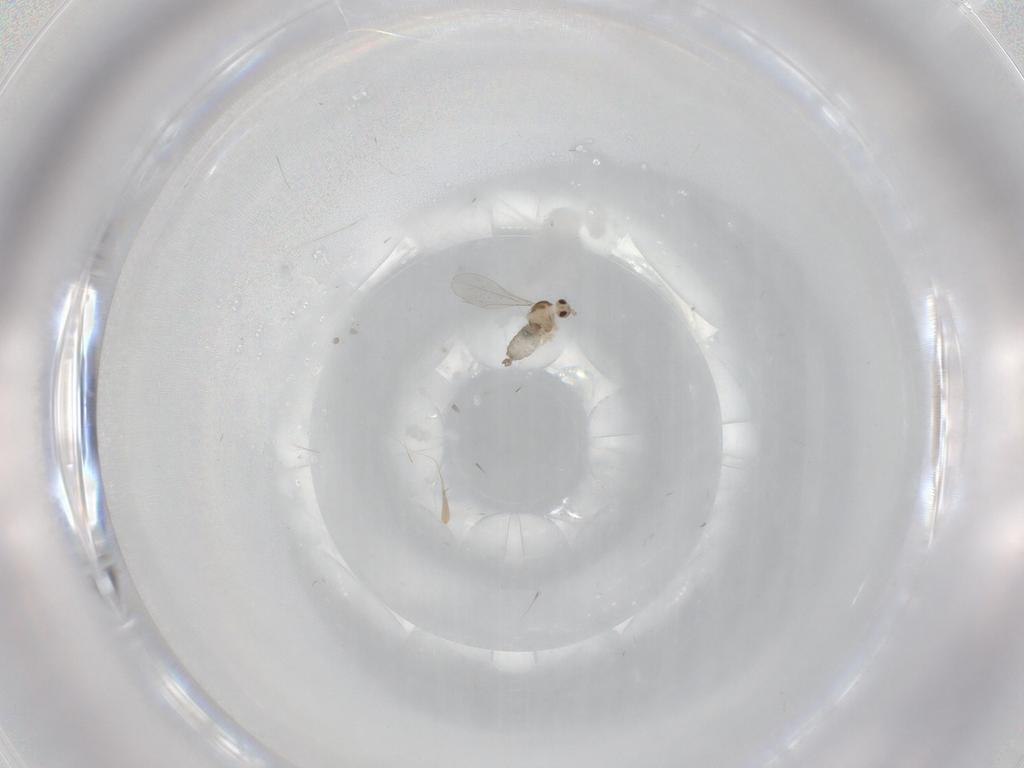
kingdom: Animalia
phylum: Arthropoda
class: Insecta
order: Diptera
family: Cecidomyiidae
